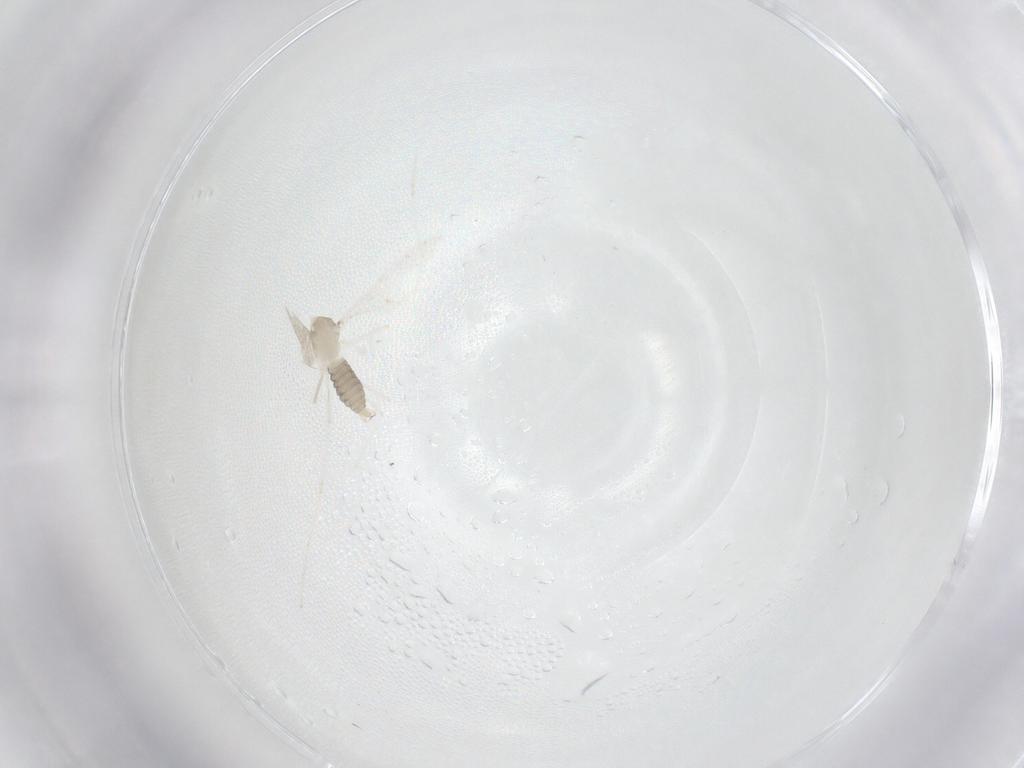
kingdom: Animalia
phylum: Arthropoda
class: Insecta
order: Diptera
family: Cecidomyiidae
